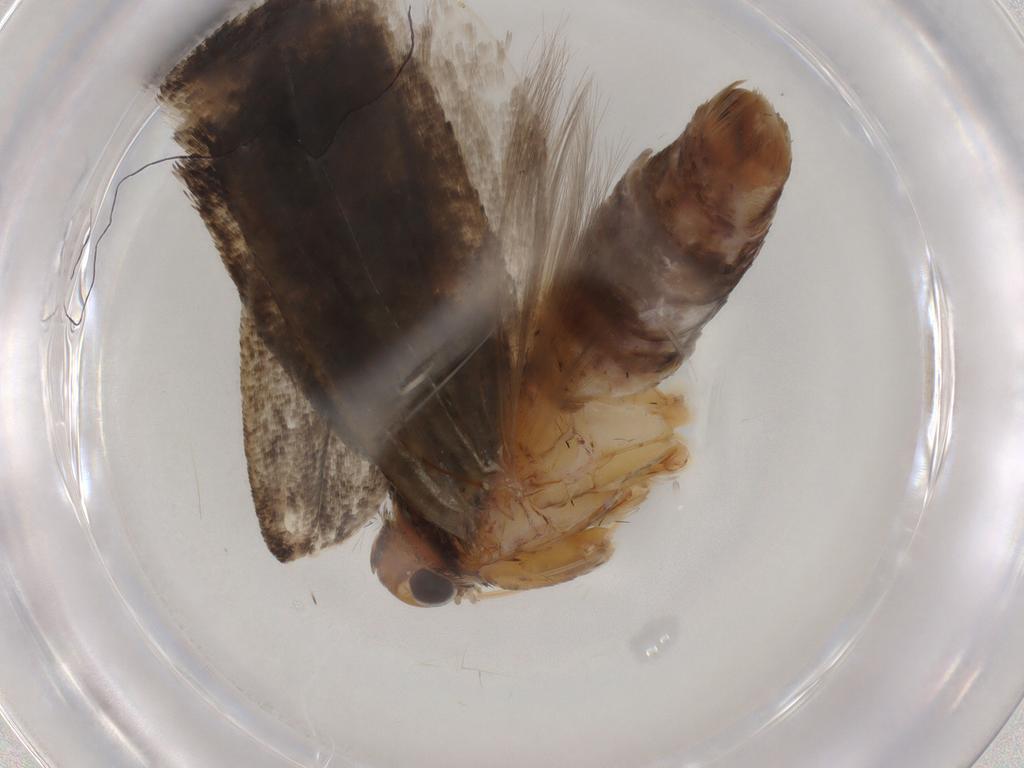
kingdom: Animalia
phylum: Arthropoda
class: Insecta
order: Lepidoptera
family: Gelechiidae
